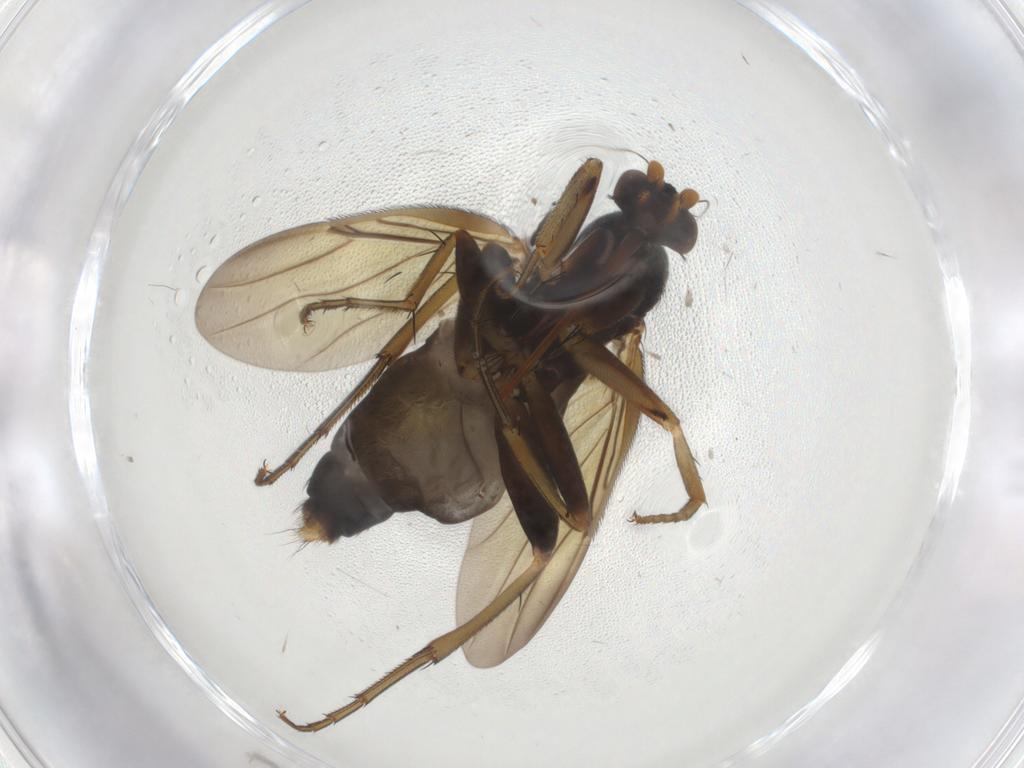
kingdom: Animalia
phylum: Arthropoda
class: Insecta
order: Diptera
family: Phoridae
